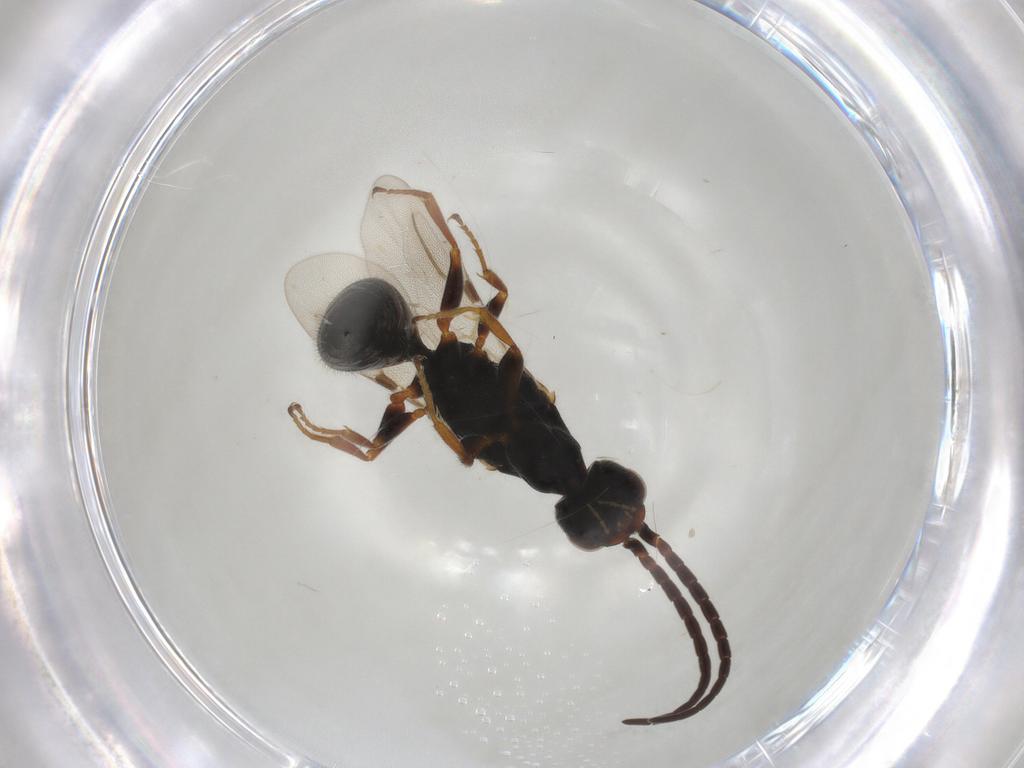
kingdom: Animalia
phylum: Arthropoda
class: Insecta
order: Hymenoptera
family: Bethylidae
